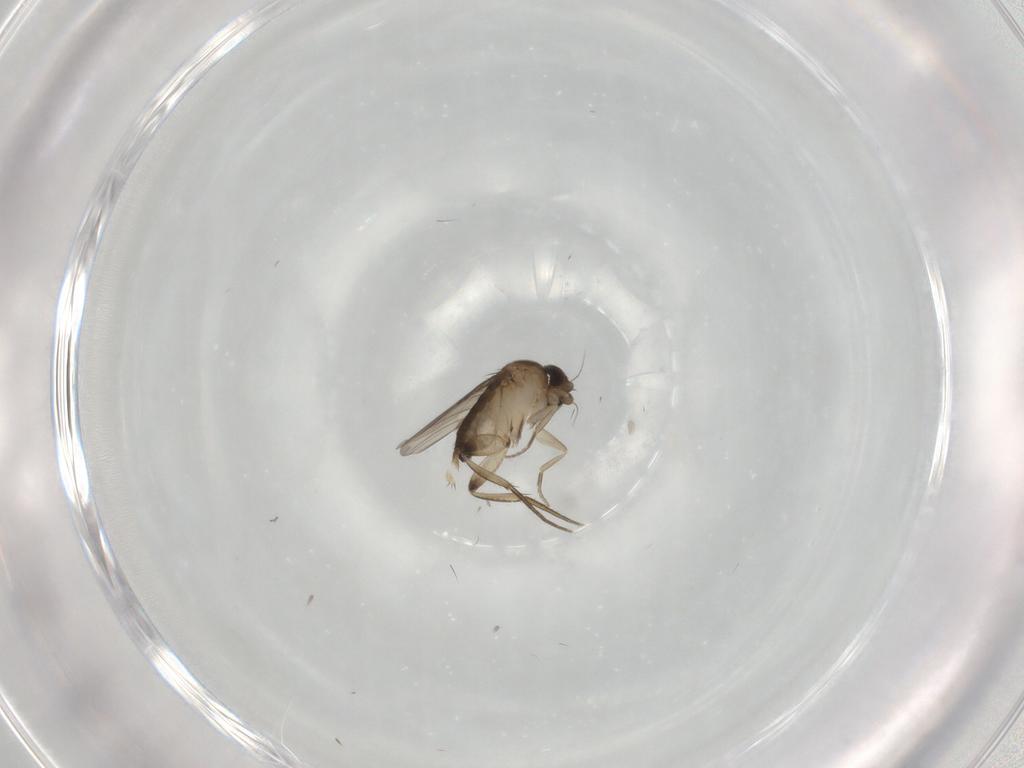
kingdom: Animalia
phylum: Arthropoda
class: Insecta
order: Diptera
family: Phoridae
